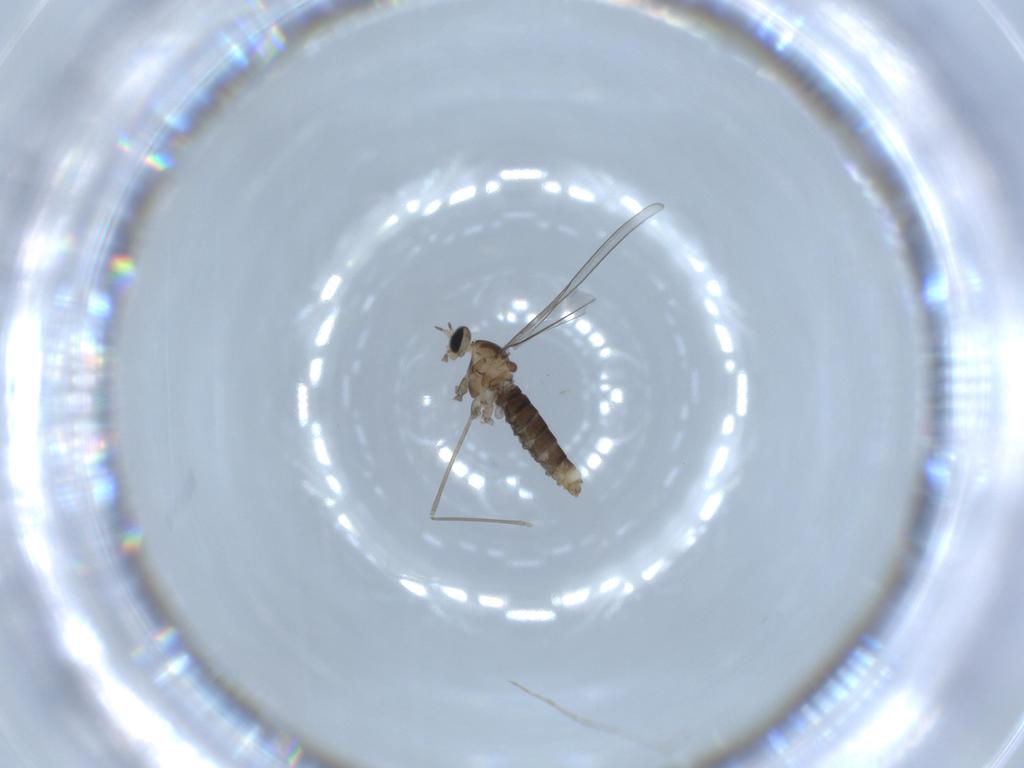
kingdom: Animalia
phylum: Arthropoda
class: Insecta
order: Diptera
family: Cecidomyiidae
